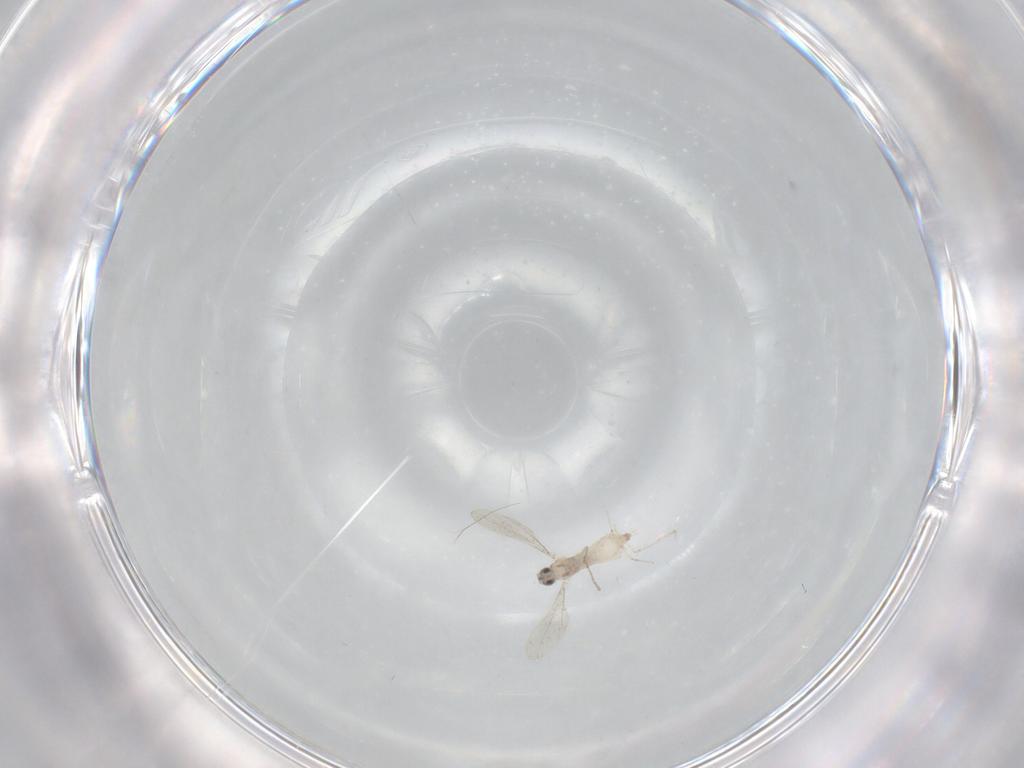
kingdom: Animalia
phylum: Arthropoda
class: Insecta
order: Diptera
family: Cecidomyiidae
